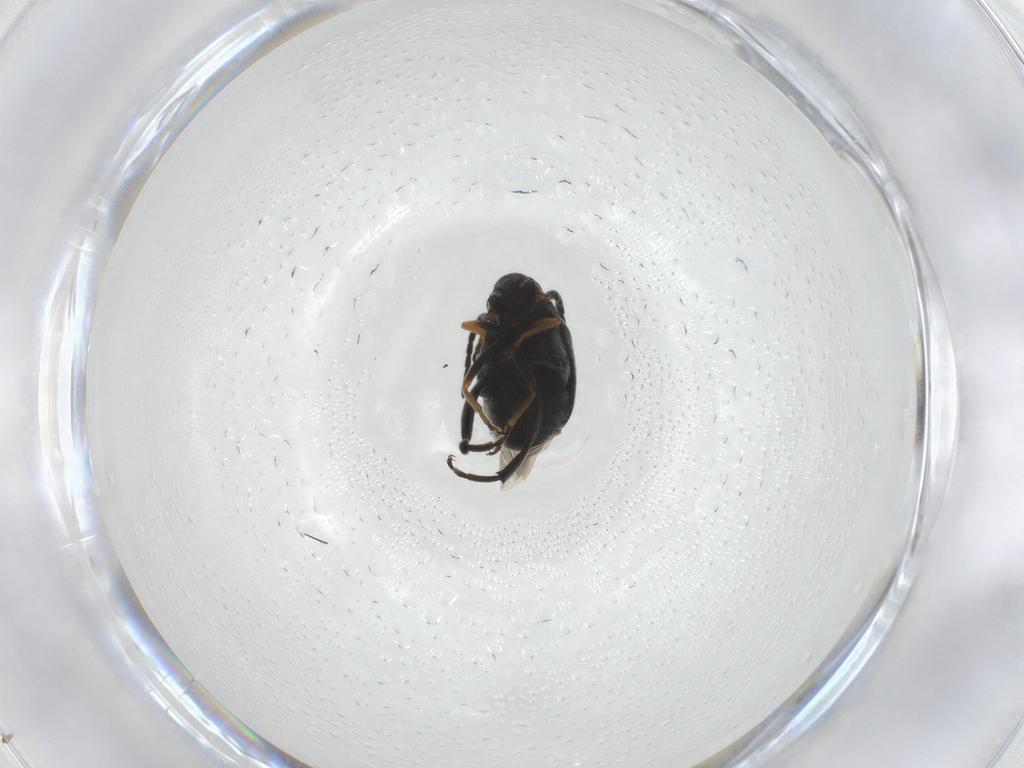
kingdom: Animalia
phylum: Arthropoda
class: Insecta
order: Coleoptera
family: Chrysomelidae
